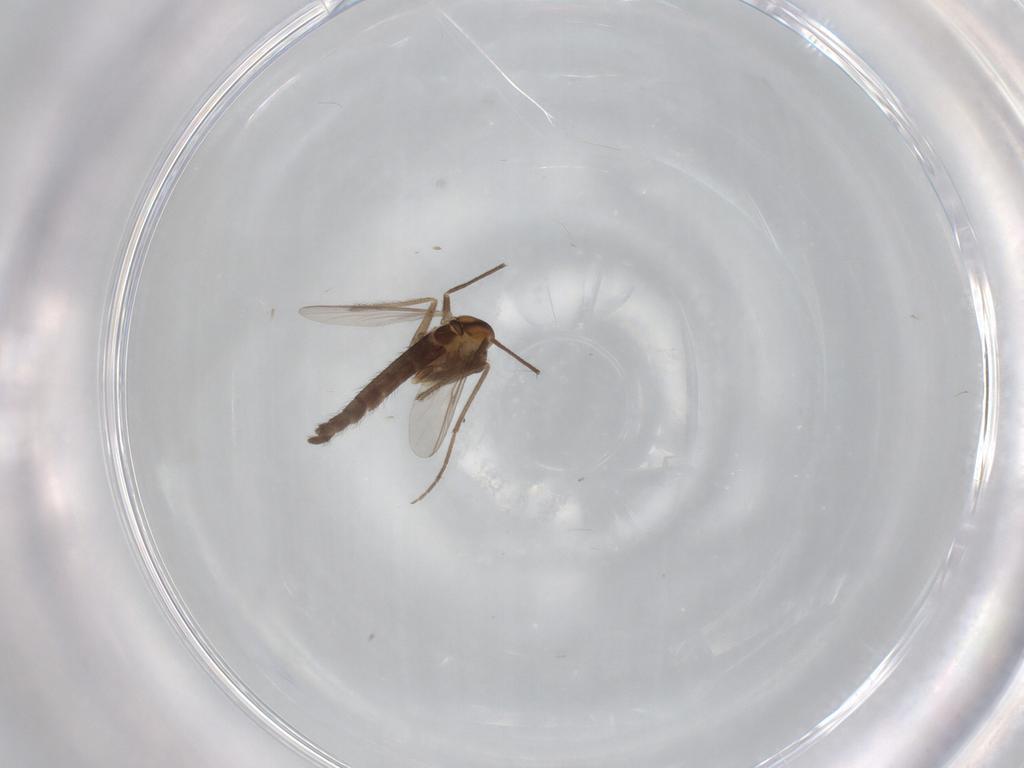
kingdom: Animalia
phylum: Arthropoda
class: Insecta
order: Diptera
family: Chironomidae
